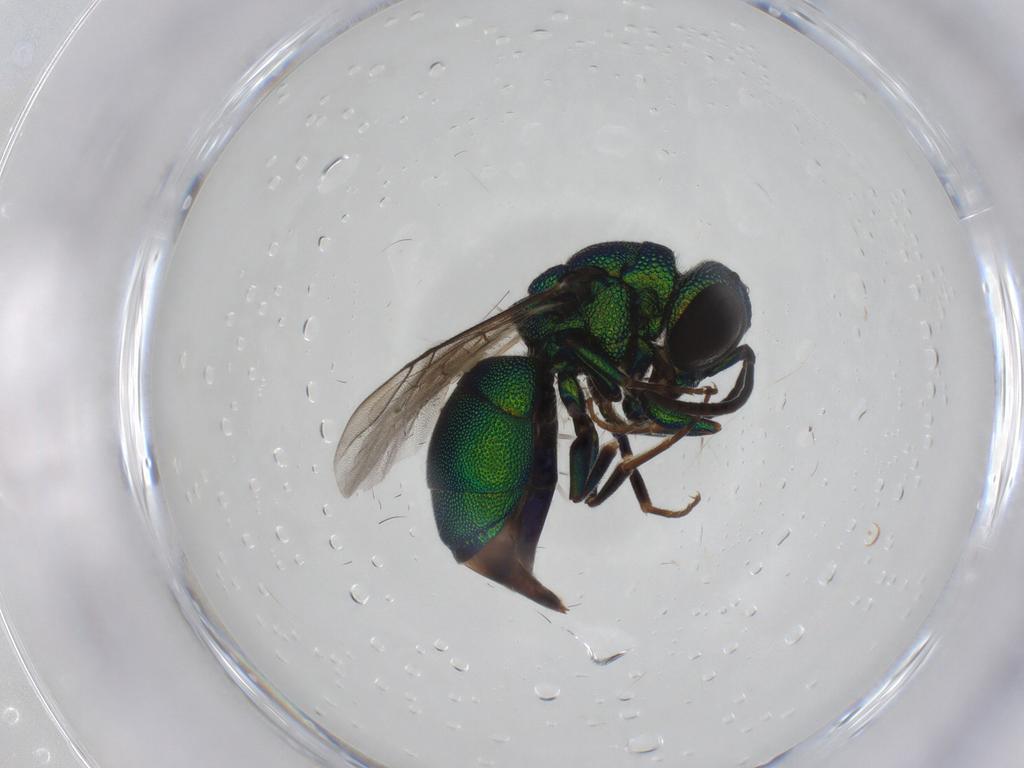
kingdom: Animalia
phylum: Arthropoda
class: Insecta
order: Hymenoptera
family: Chrysididae
